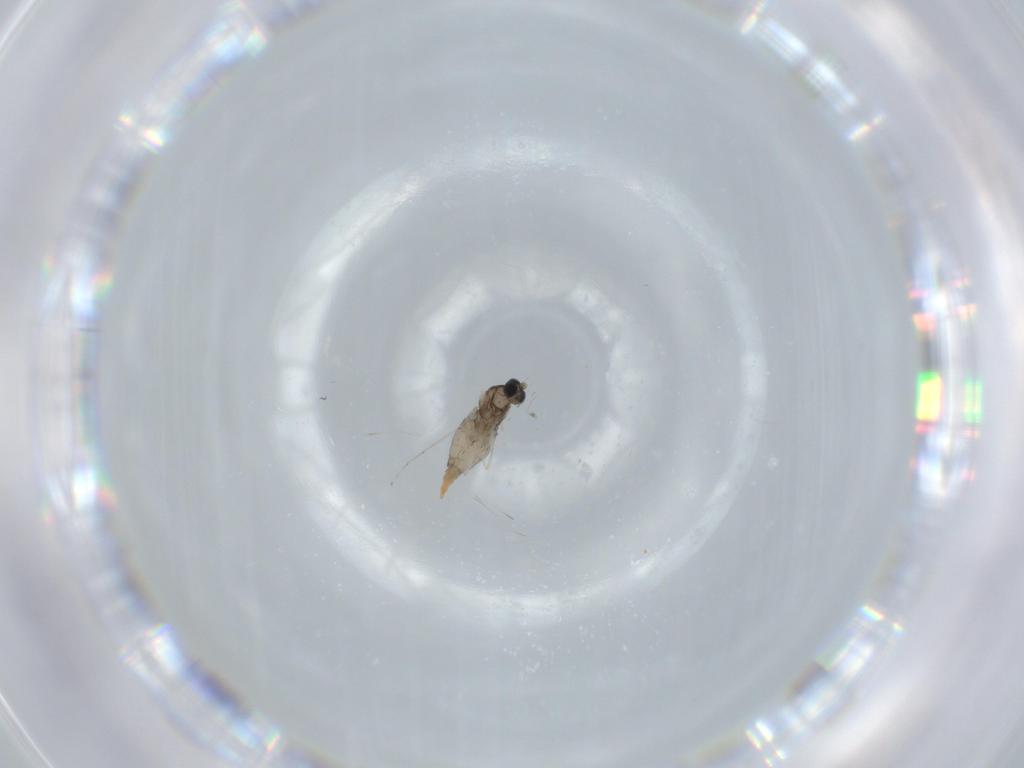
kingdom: Animalia
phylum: Arthropoda
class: Insecta
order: Diptera
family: Cecidomyiidae
